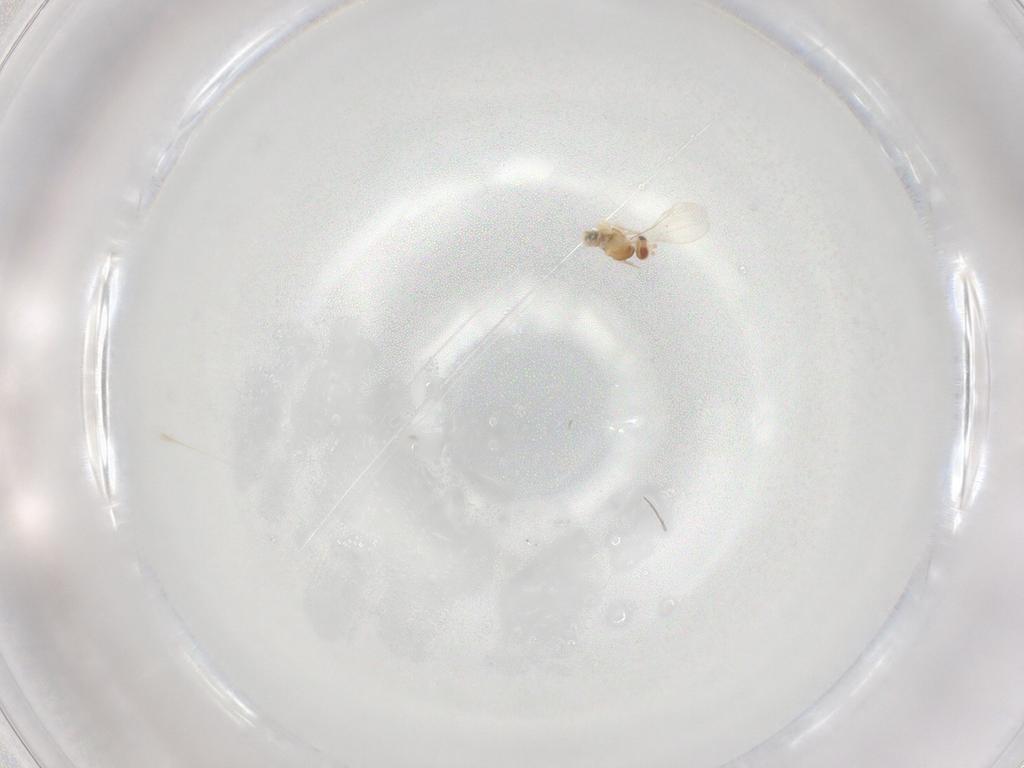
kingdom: Animalia
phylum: Arthropoda
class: Insecta
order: Diptera
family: Cecidomyiidae
